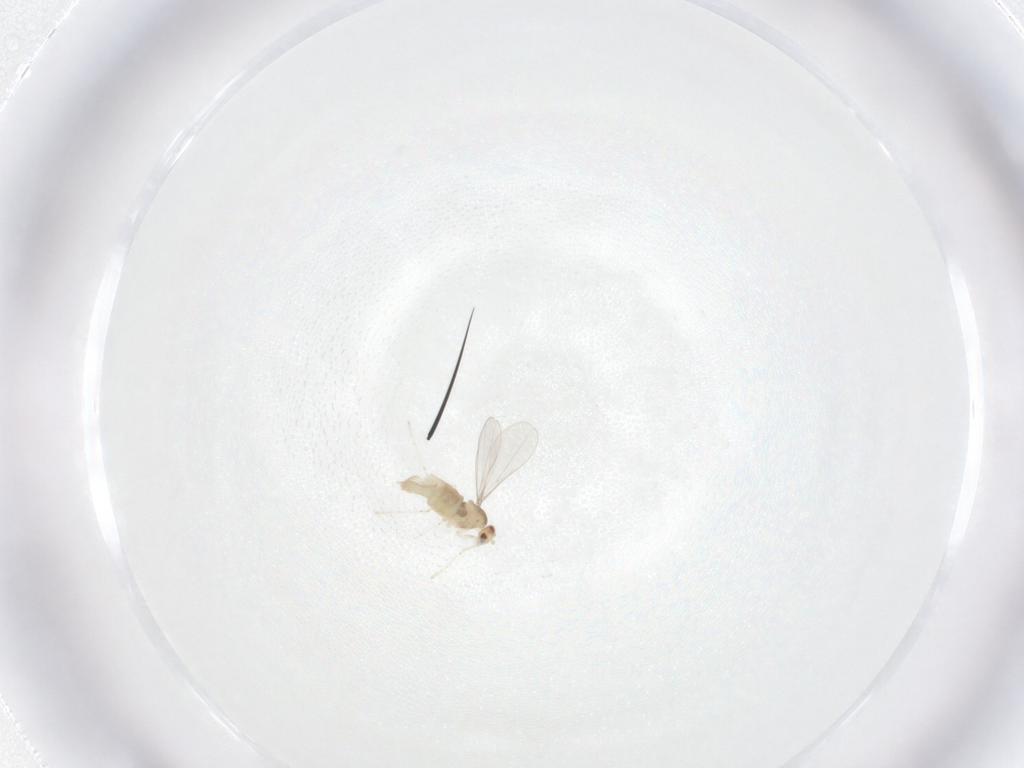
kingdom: Animalia
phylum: Arthropoda
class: Insecta
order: Diptera
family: Cecidomyiidae
